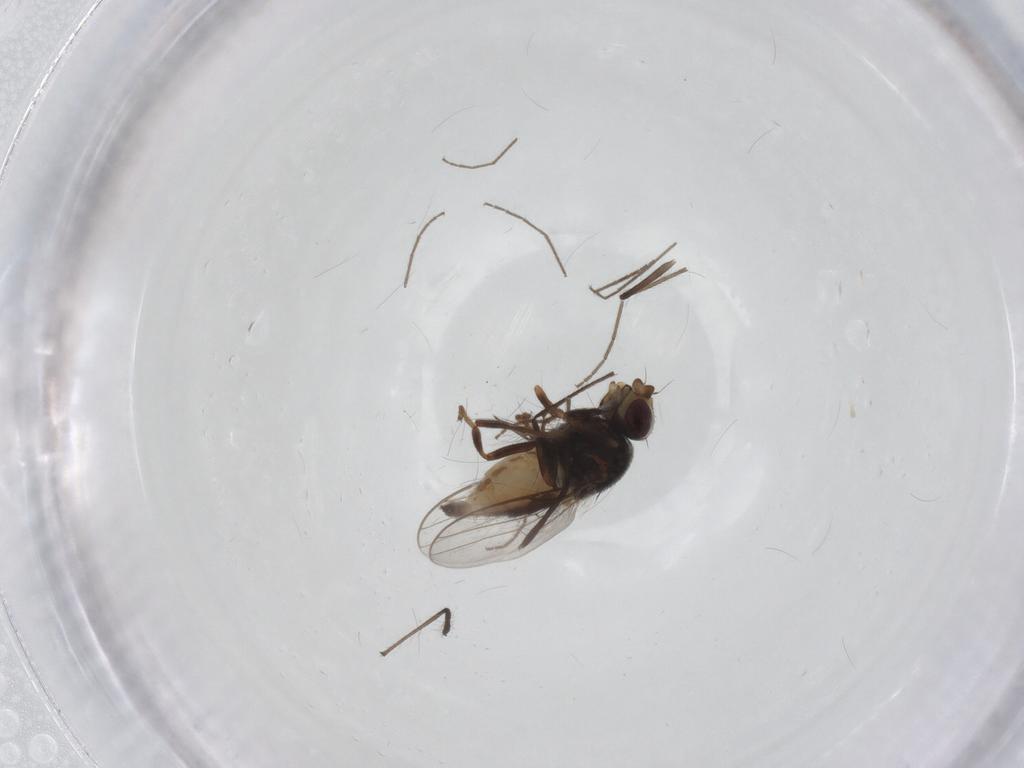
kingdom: Animalia
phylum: Arthropoda
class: Insecta
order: Diptera
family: Chloropidae
